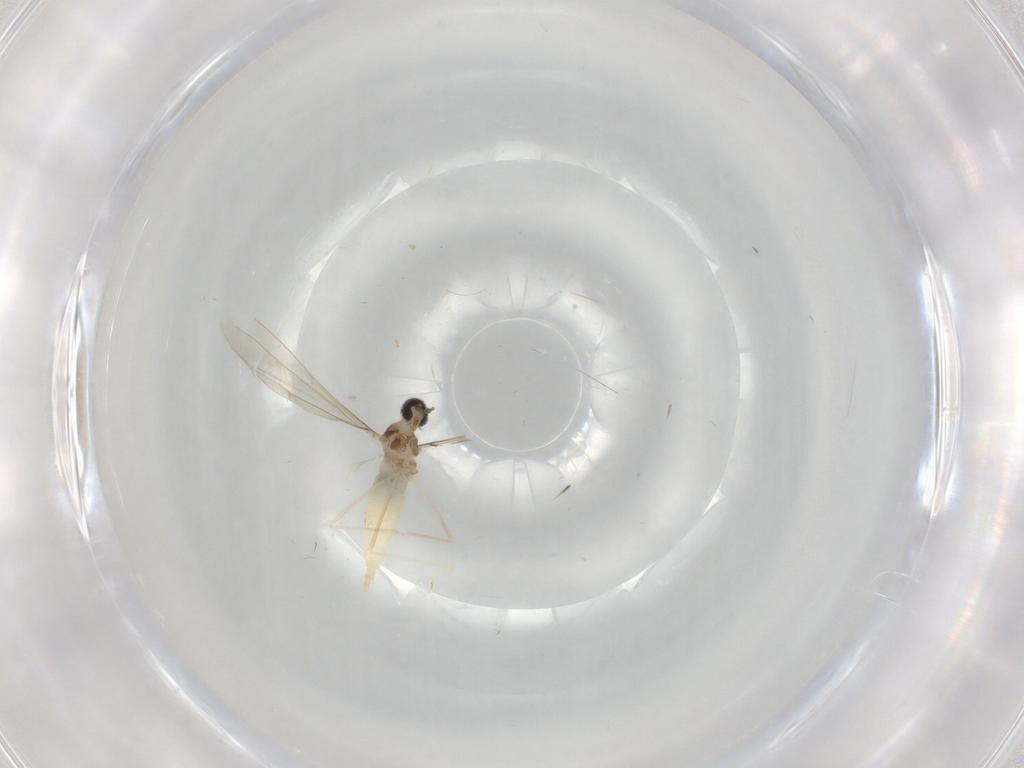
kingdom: Animalia
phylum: Arthropoda
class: Insecta
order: Diptera
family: Cecidomyiidae
